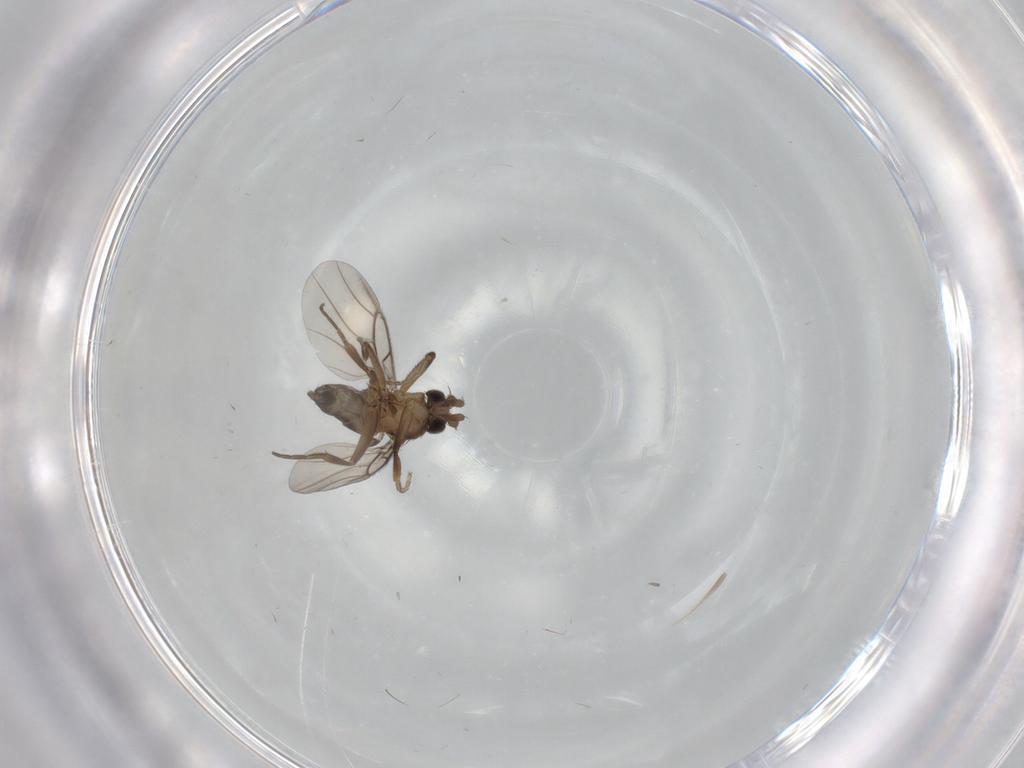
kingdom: Animalia
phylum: Arthropoda
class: Insecta
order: Diptera
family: Phoridae
